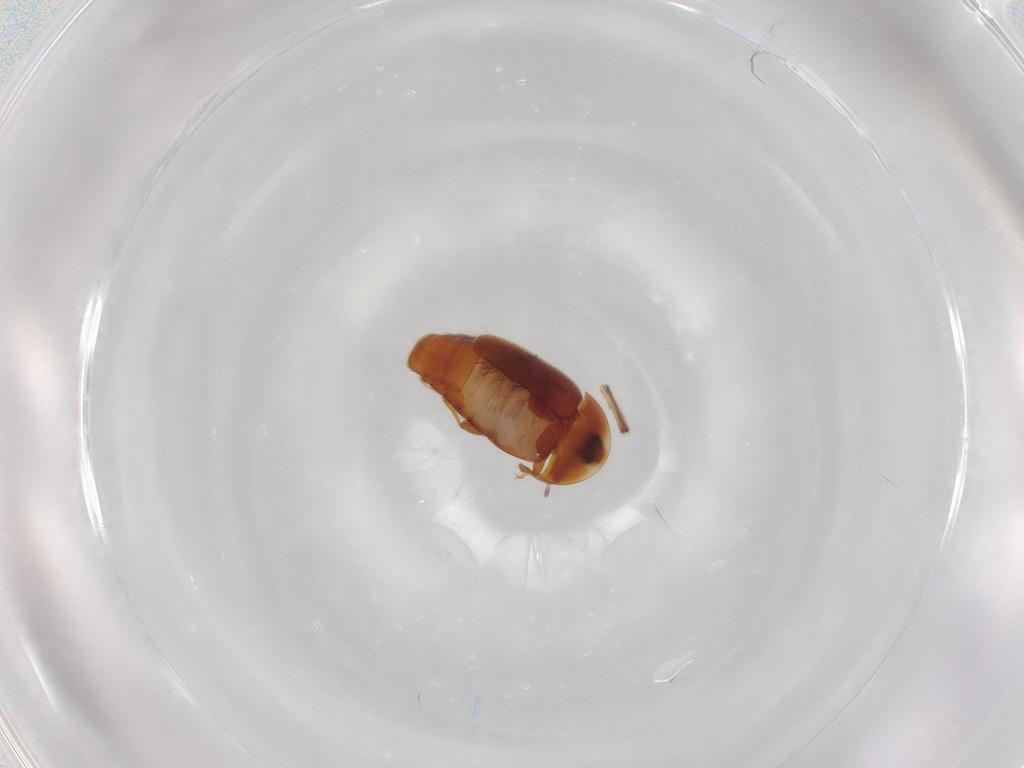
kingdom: Animalia
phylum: Arthropoda
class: Insecta
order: Coleoptera
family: Corylophidae
